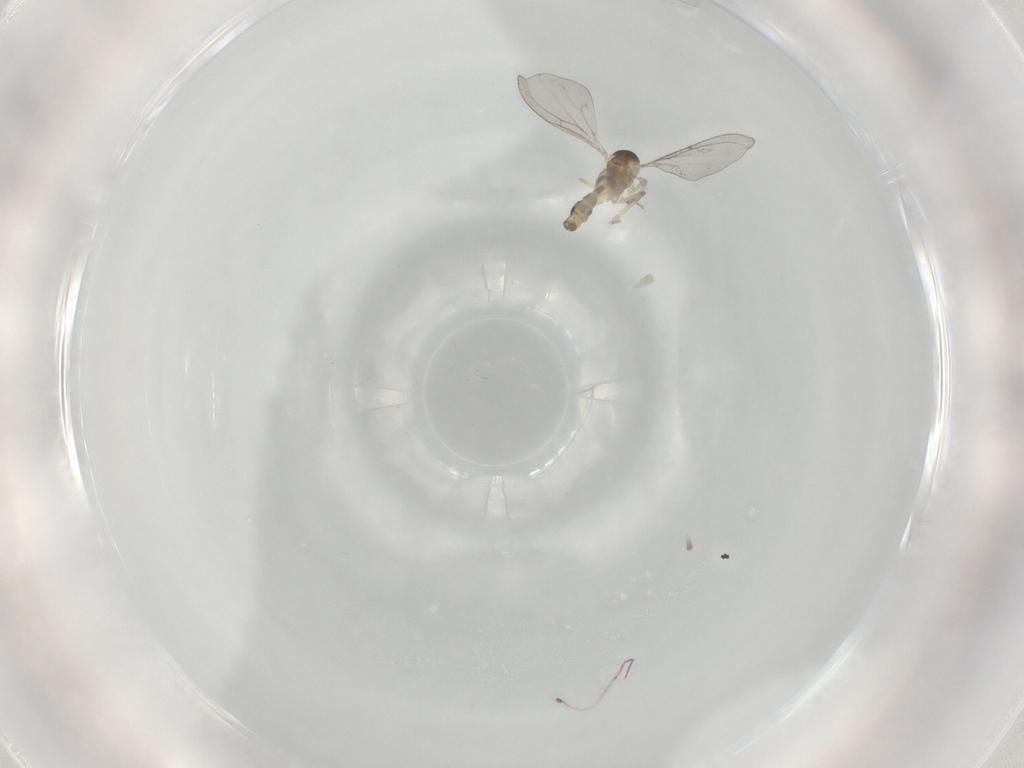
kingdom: Animalia
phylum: Arthropoda
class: Insecta
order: Diptera
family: Cecidomyiidae
